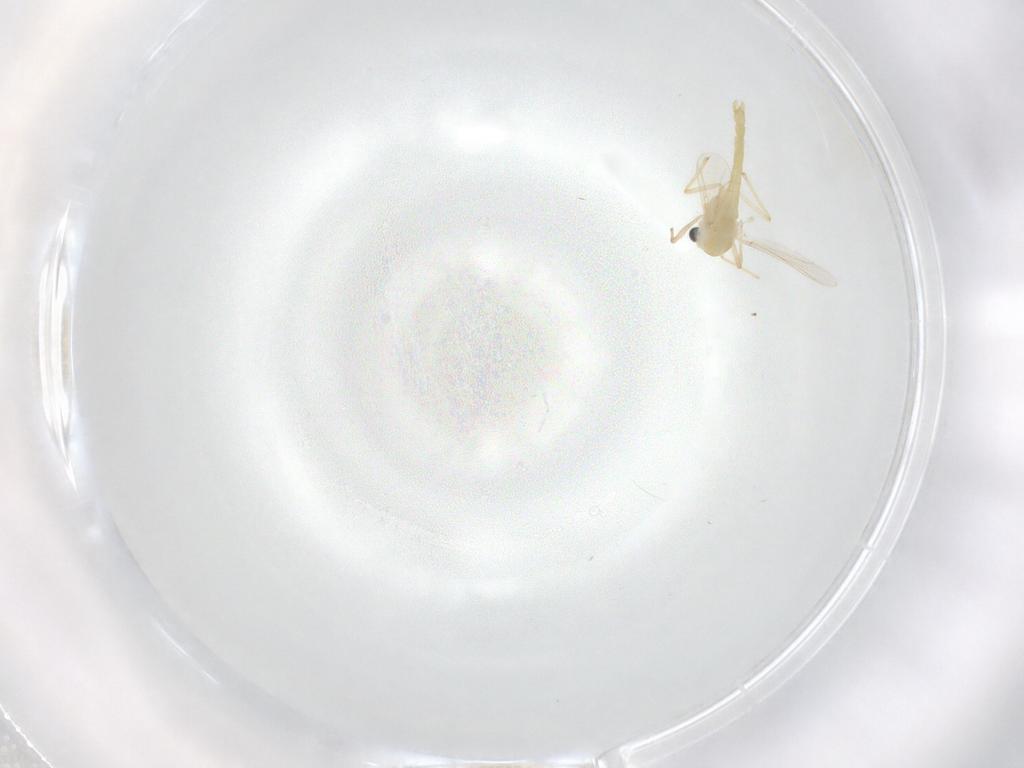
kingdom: Animalia
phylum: Arthropoda
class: Insecta
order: Diptera
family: Chironomidae
